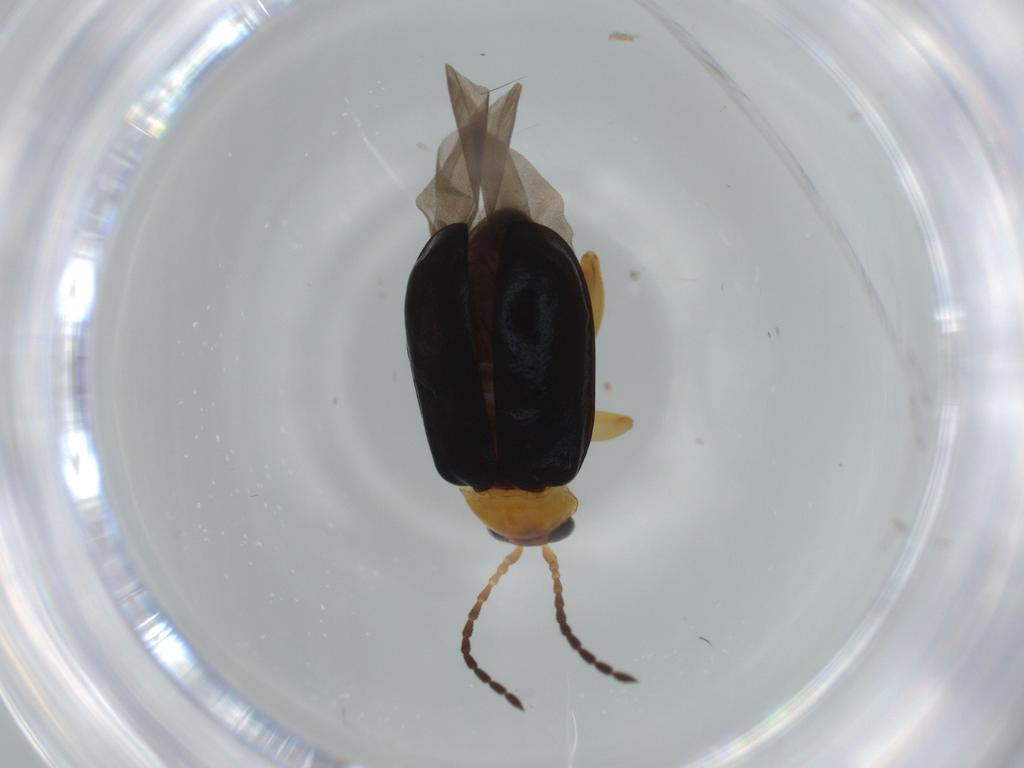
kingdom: Animalia
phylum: Arthropoda
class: Insecta
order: Coleoptera
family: Chrysomelidae
